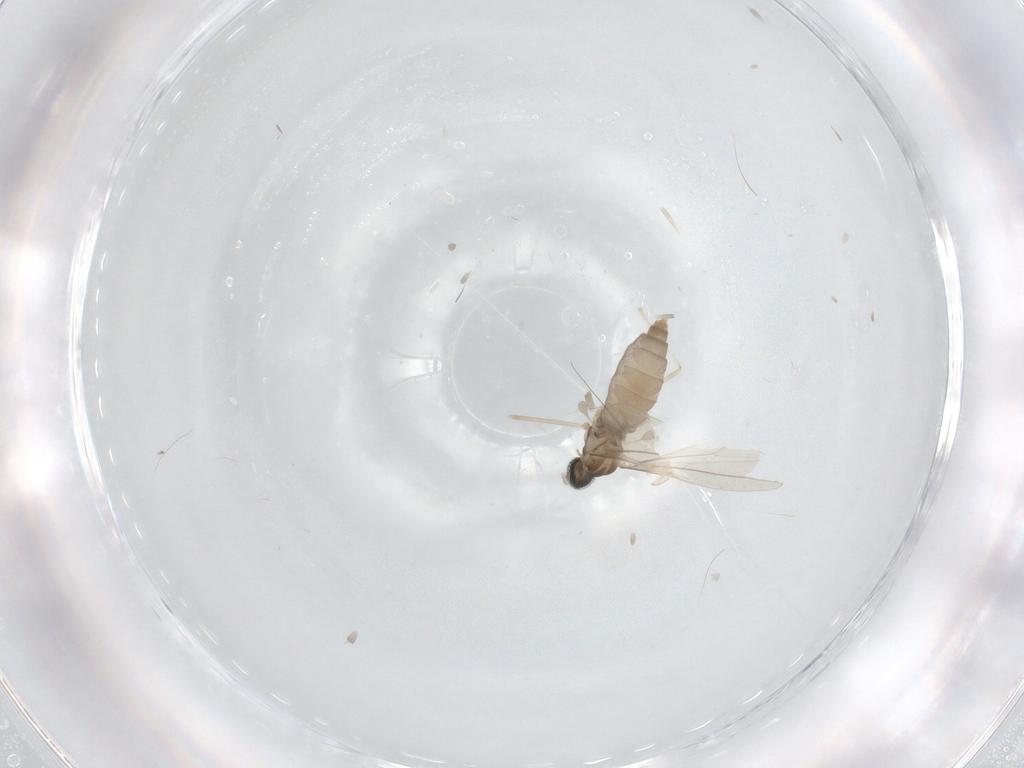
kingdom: Animalia
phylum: Arthropoda
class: Insecta
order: Diptera
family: Cecidomyiidae
